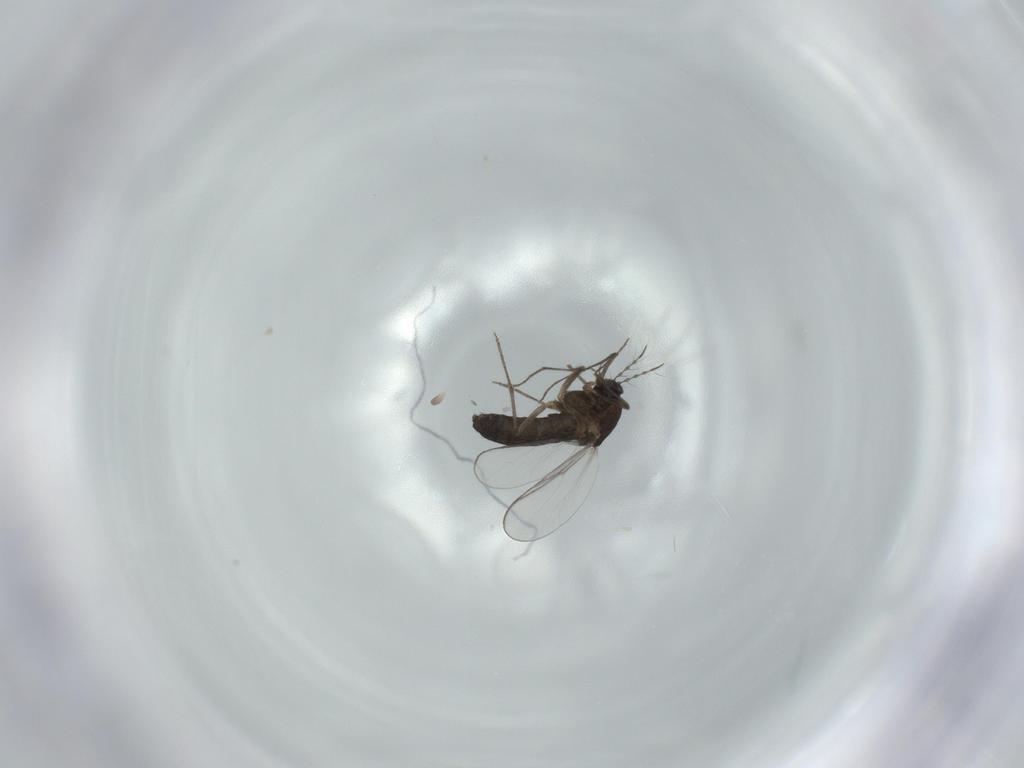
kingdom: Animalia
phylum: Arthropoda
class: Insecta
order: Diptera
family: Chironomidae
